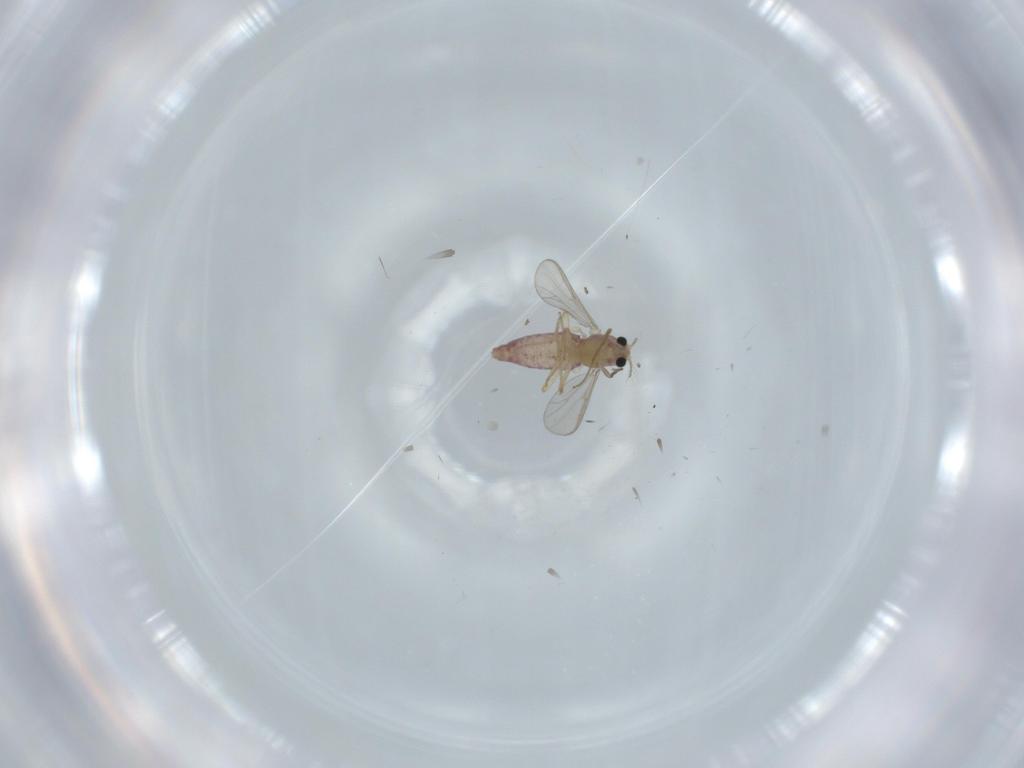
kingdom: Animalia
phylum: Arthropoda
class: Insecta
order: Diptera
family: Chironomidae
